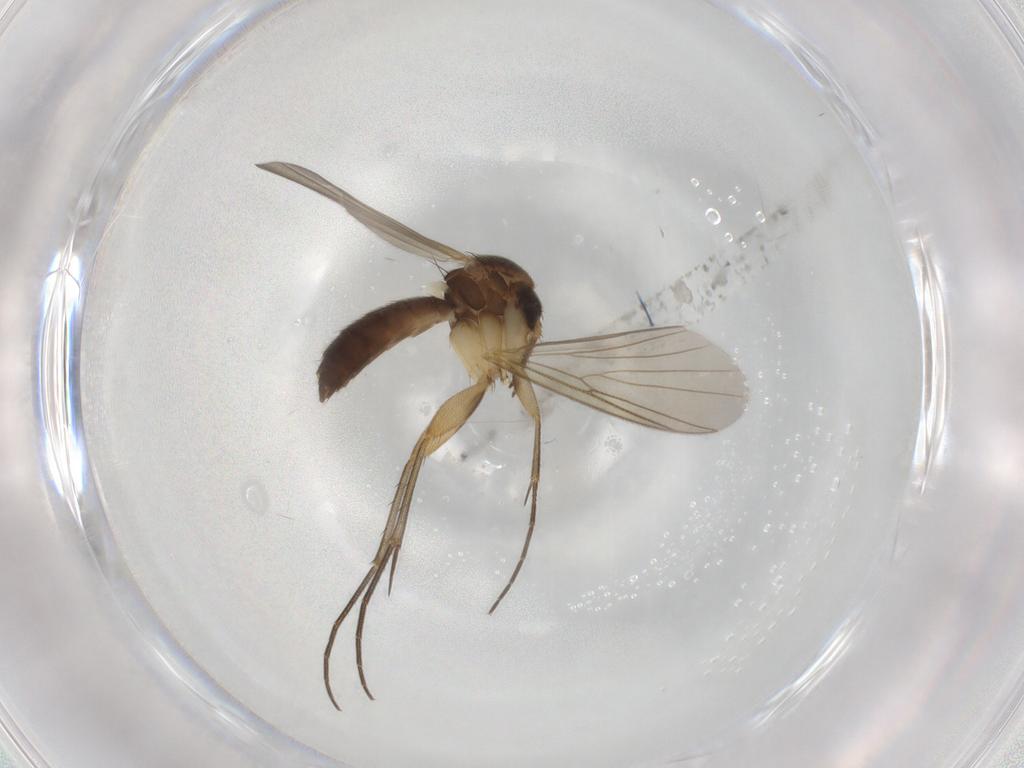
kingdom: Animalia
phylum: Arthropoda
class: Insecta
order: Diptera
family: Mycetophilidae
